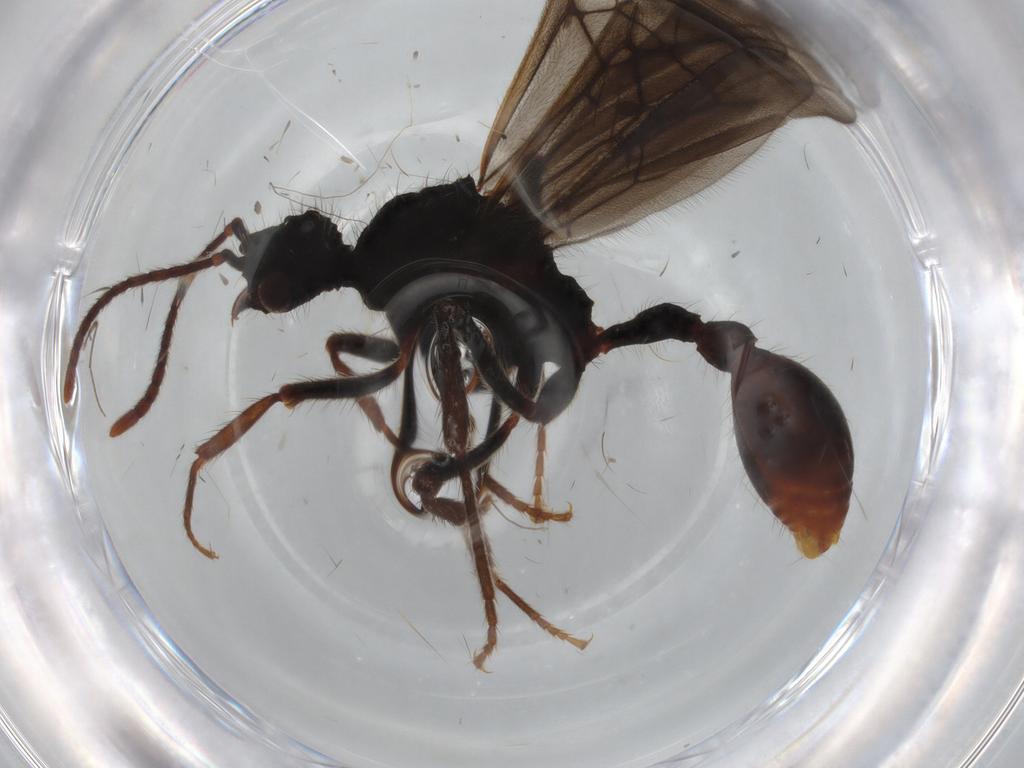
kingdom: Animalia
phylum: Arthropoda
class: Insecta
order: Hymenoptera
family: Formicidae
